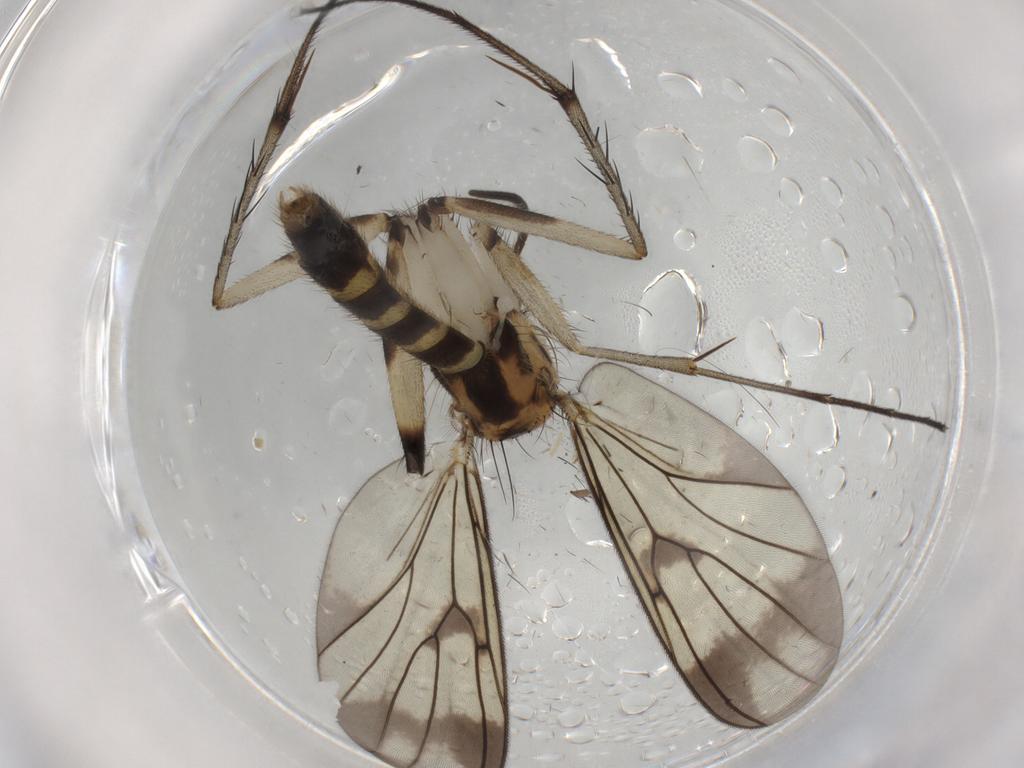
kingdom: Animalia
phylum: Arthropoda
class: Insecta
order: Diptera
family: Mycetophilidae
